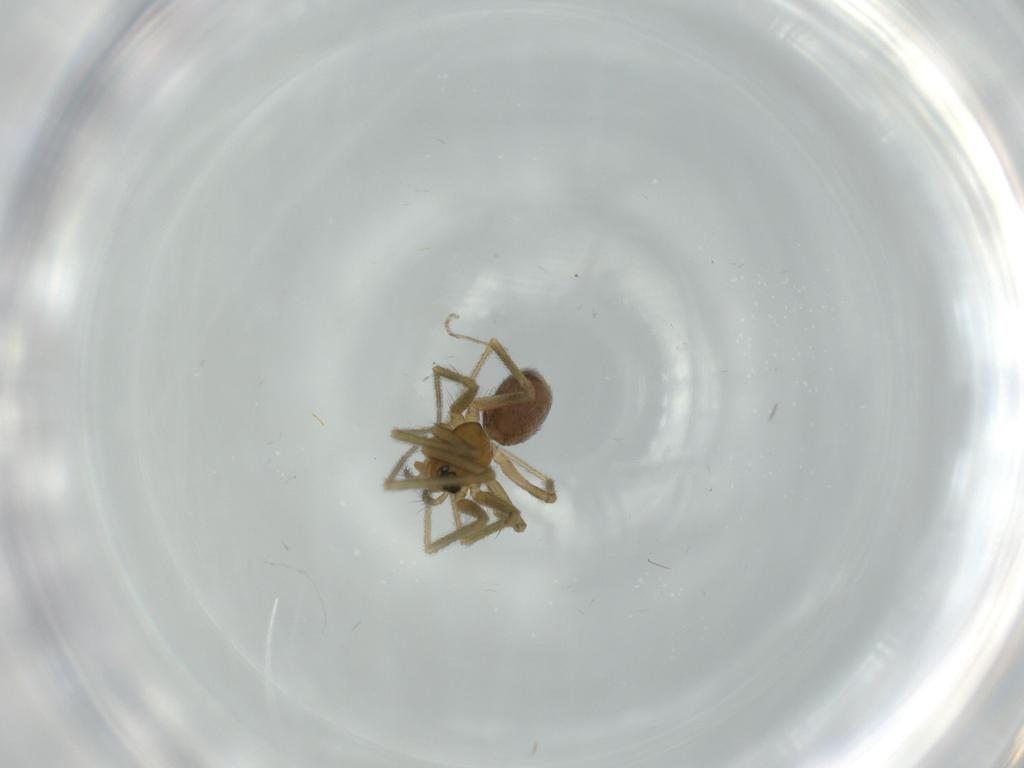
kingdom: Animalia
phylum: Arthropoda
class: Arachnida
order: Araneae
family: Linyphiidae
